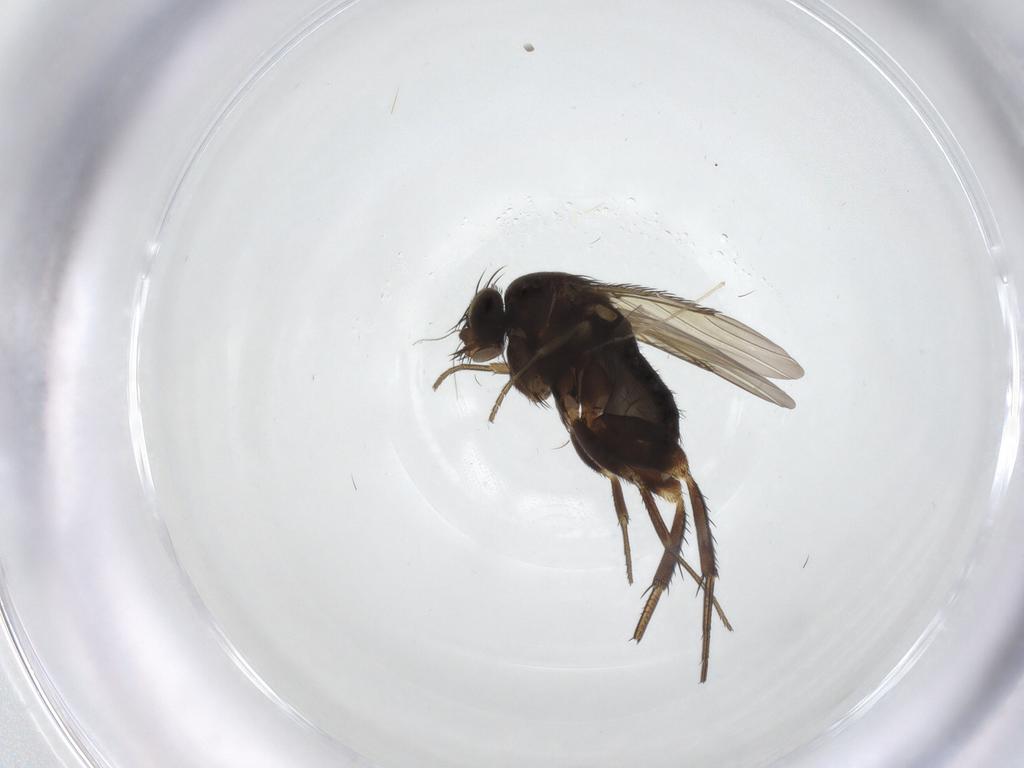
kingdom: Animalia
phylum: Arthropoda
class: Insecta
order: Diptera
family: Phoridae
